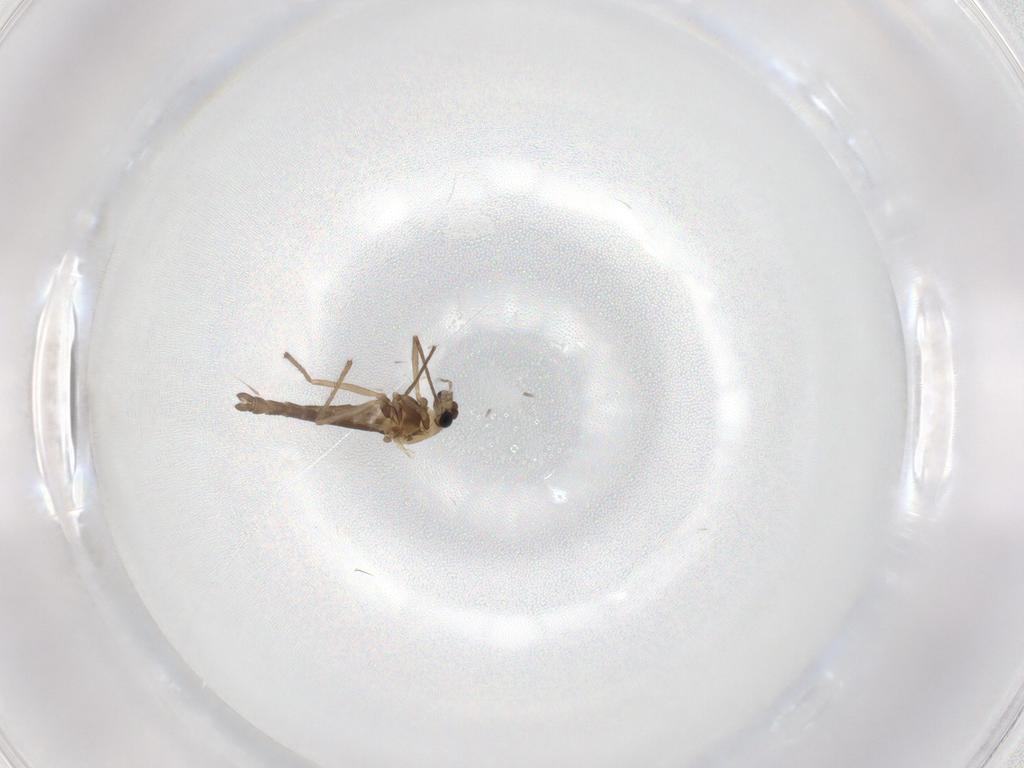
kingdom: Animalia
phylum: Arthropoda
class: Insecta
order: Diptera
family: Chironomidae
